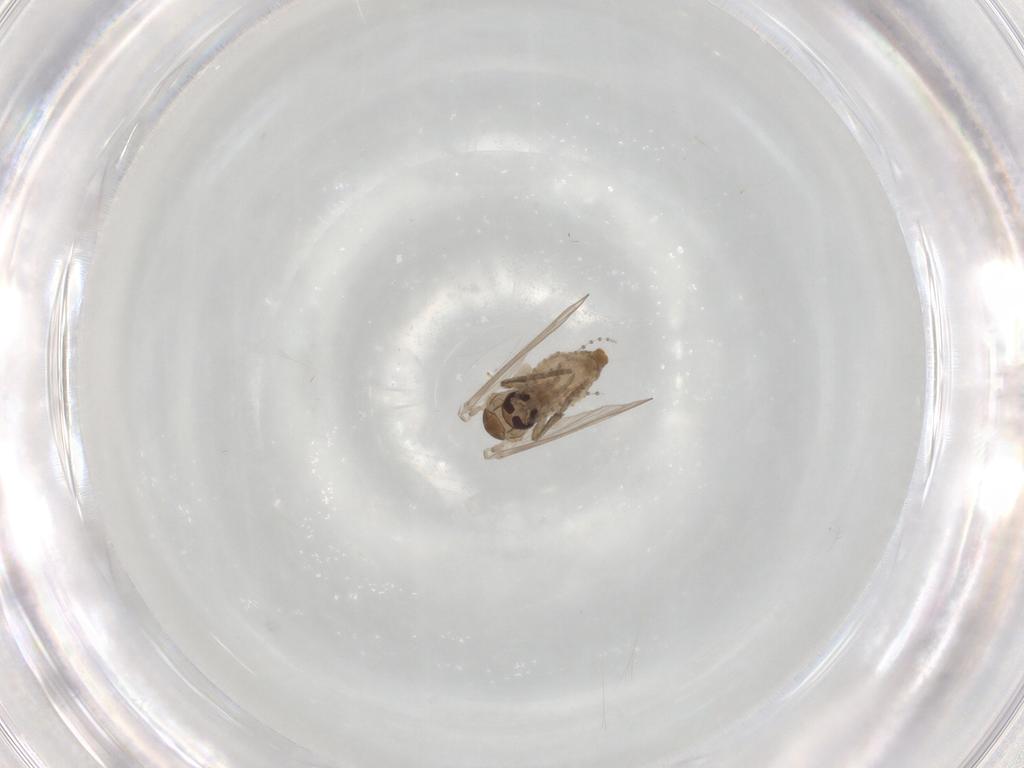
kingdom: Animalia
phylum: Arthropoda
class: Insecta
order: Diptera
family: Psychodidae
